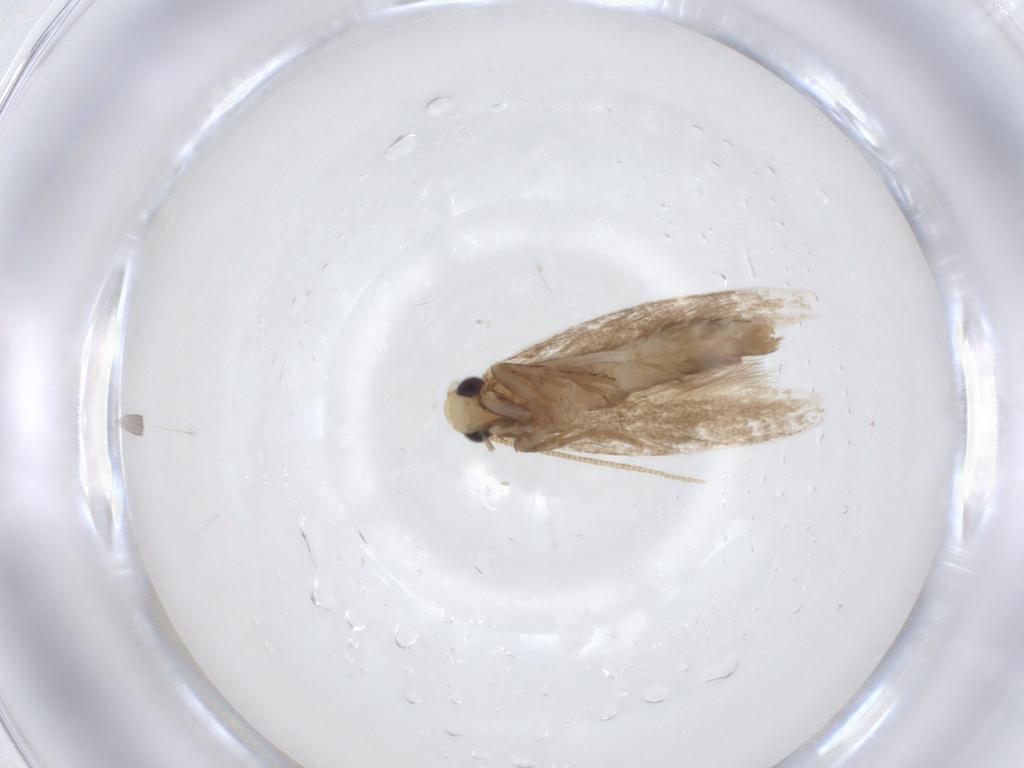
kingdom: Animalia
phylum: Arthropoda
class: Insecta
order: Lepidoptera
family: Tineidae
